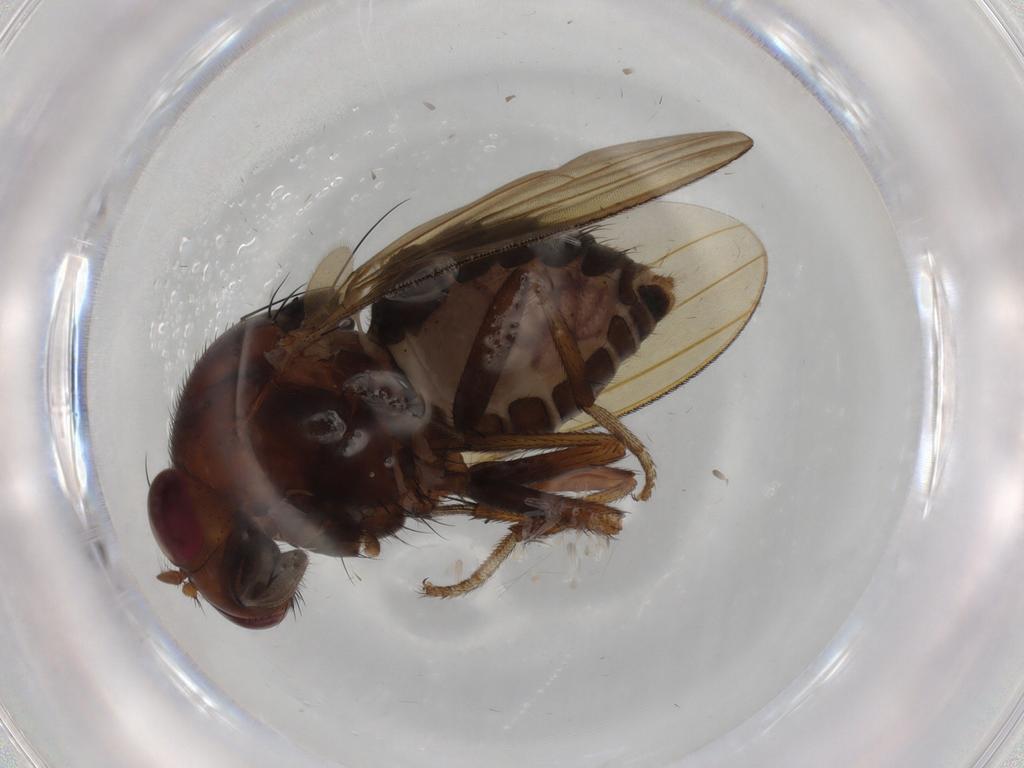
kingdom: Animalia
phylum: Arthropoda
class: Insecta
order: Diptera
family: Lauxaniidae
